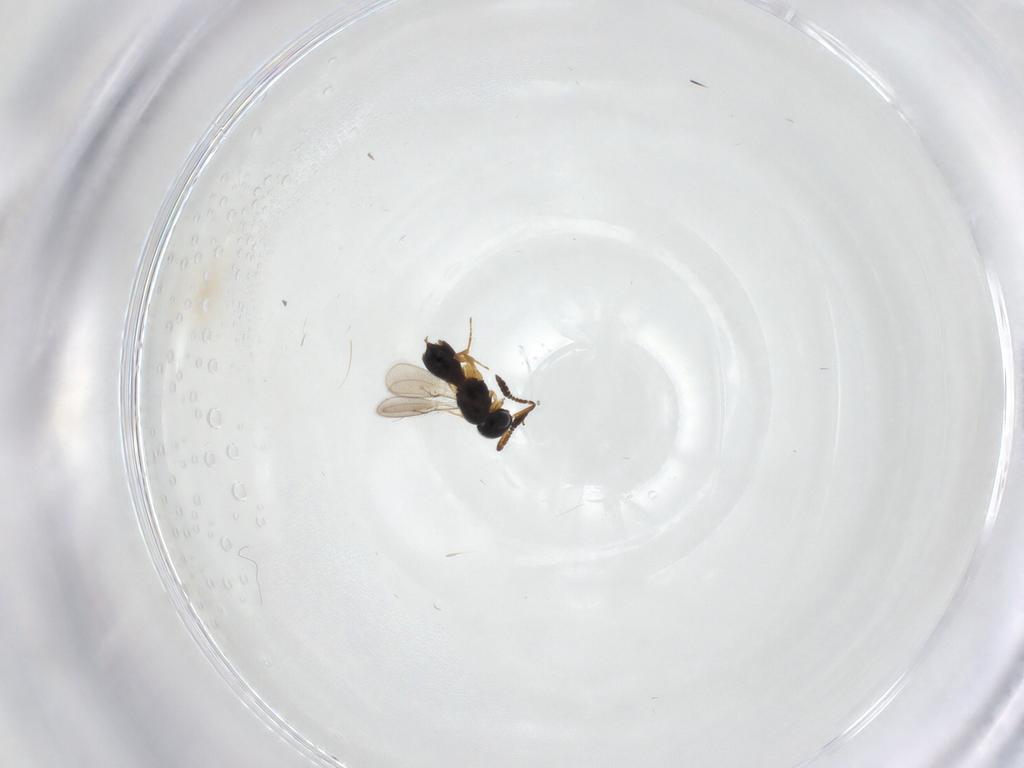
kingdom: Animalia
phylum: Arthropoda
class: Insecta
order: Hymenoptera
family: Scelionidae
